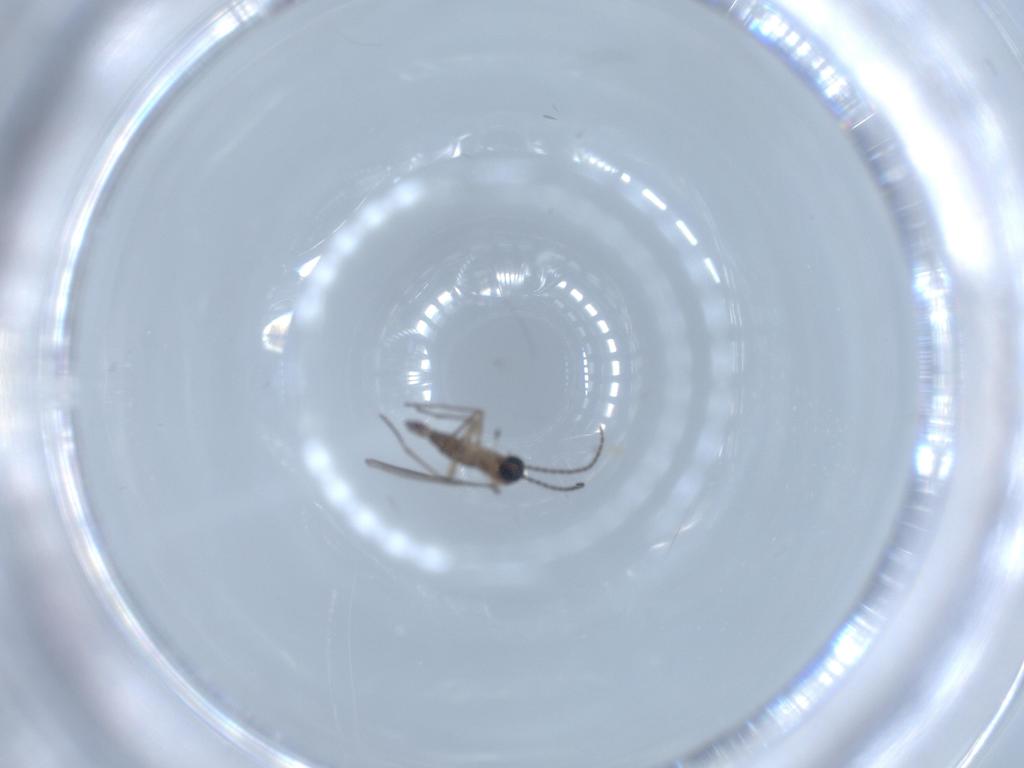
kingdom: Animalia
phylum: Arthropoda
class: Insecta
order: Diptera
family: Sciaridae
